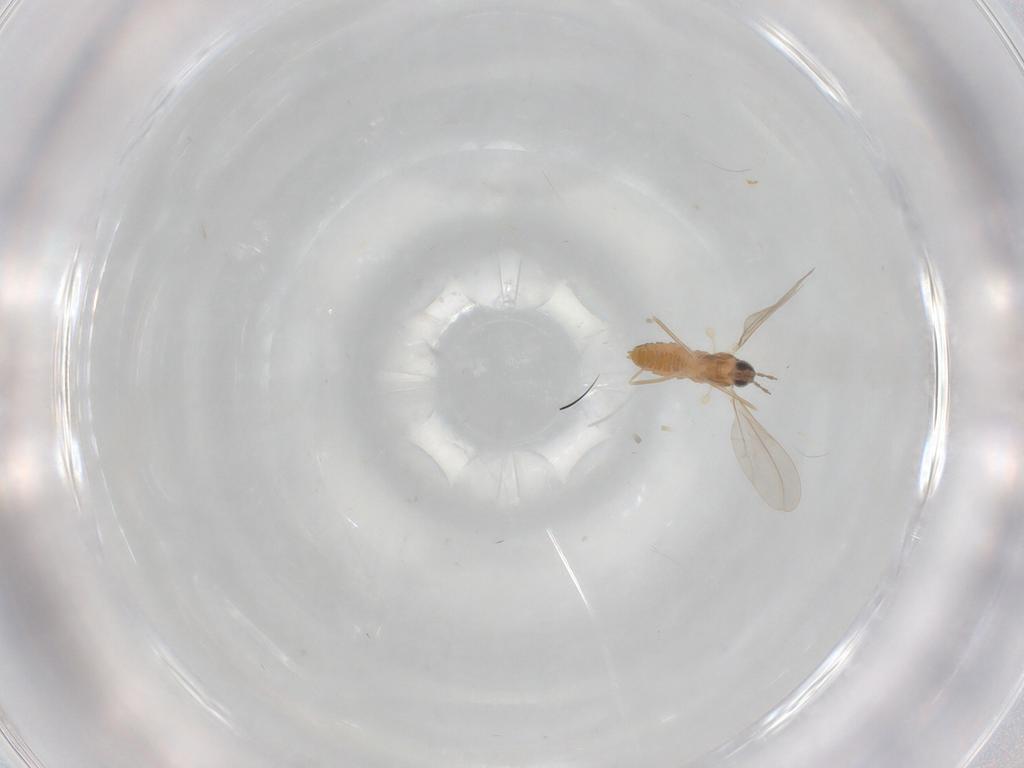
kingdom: Animalia
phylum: Arthropoda
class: Insecta
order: Diptera
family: Cecidomyiidae
